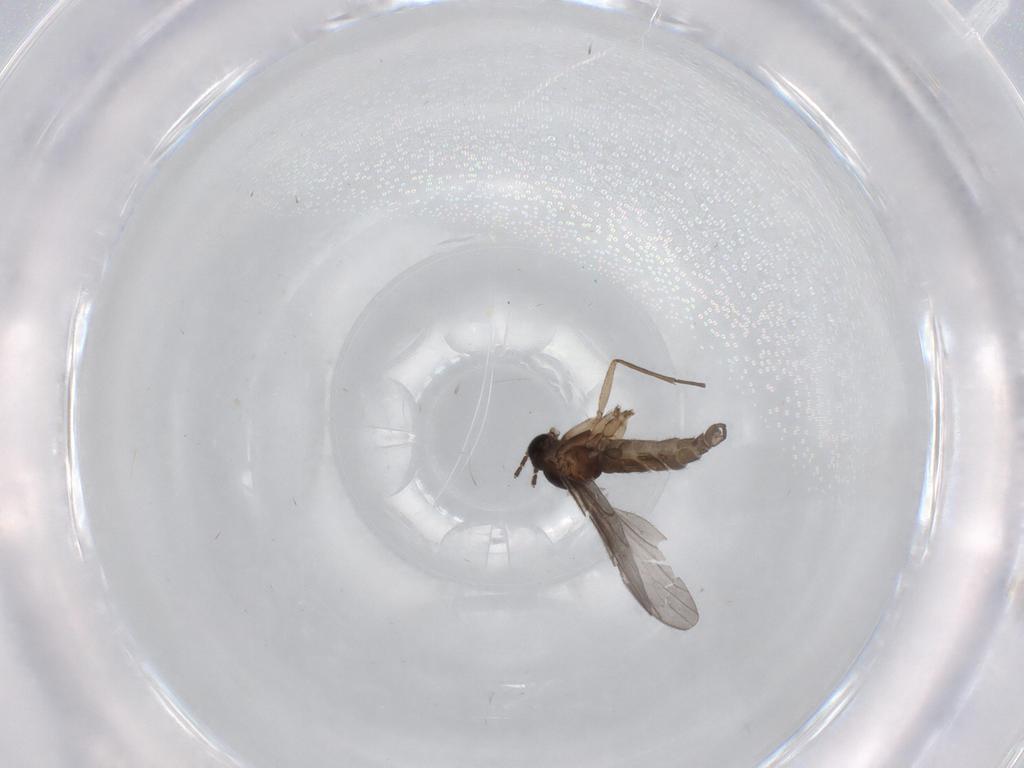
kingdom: Animalia
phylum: Arthropoda
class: Insecta
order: Diptera
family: Sciaridae
